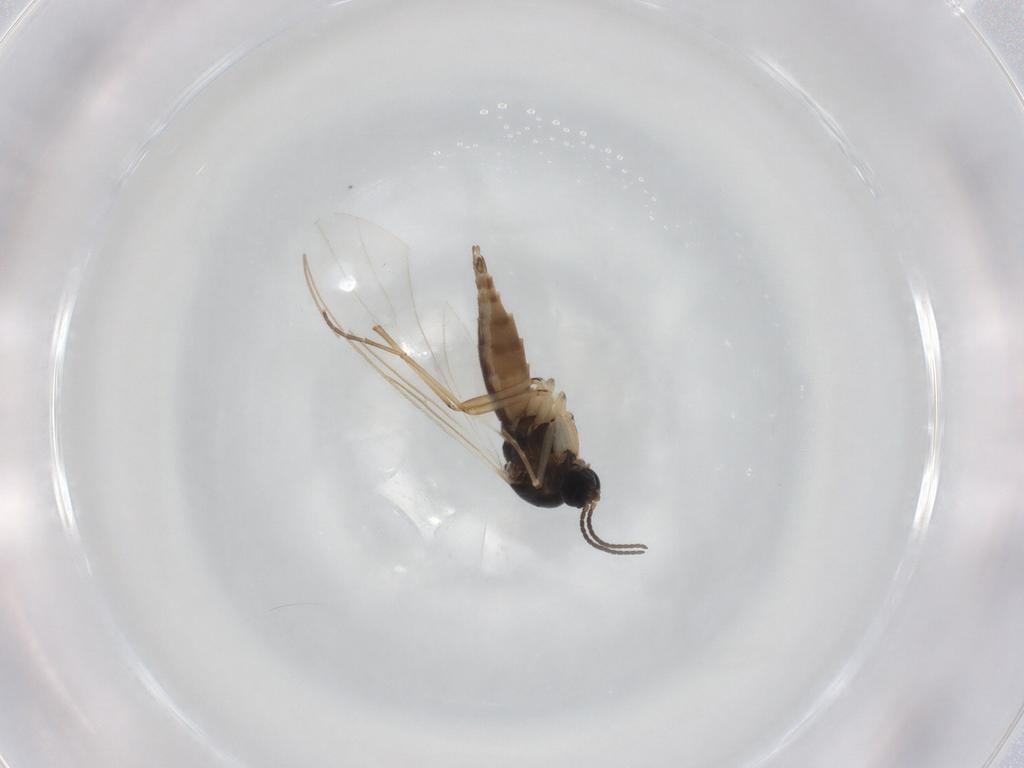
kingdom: Animalia
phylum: Arthropoda
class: Insecta
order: Diptera
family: Sciaridae
